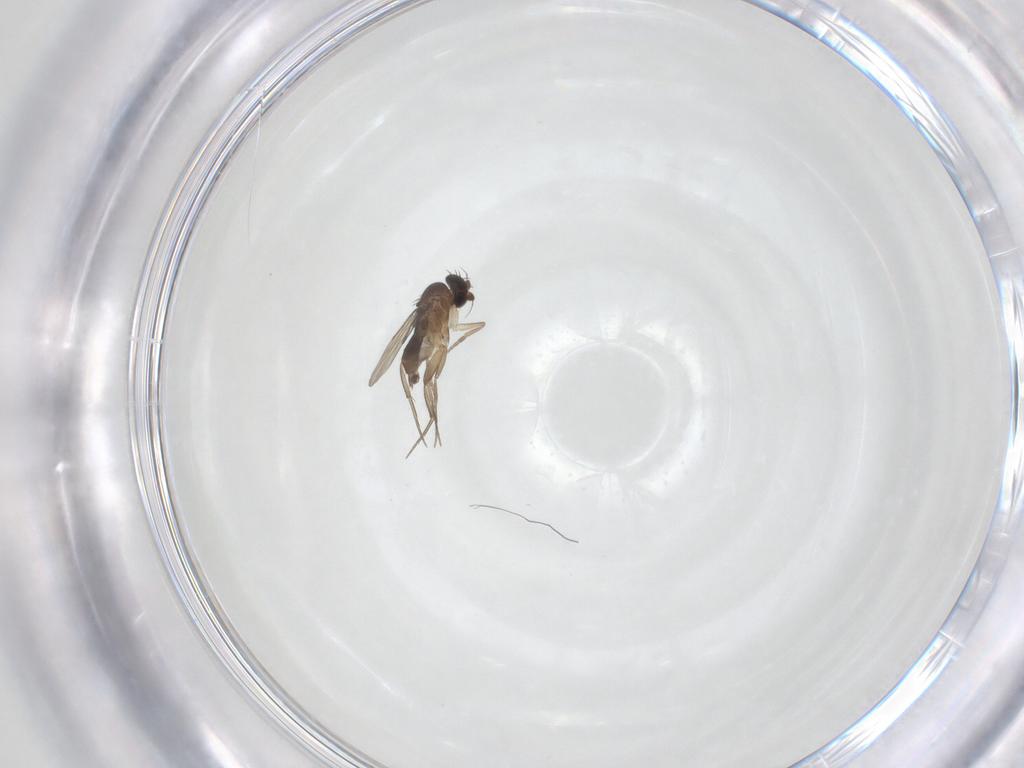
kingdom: Animalia
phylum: Arthropoda
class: Insecta
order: Diptera
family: Phoridae
